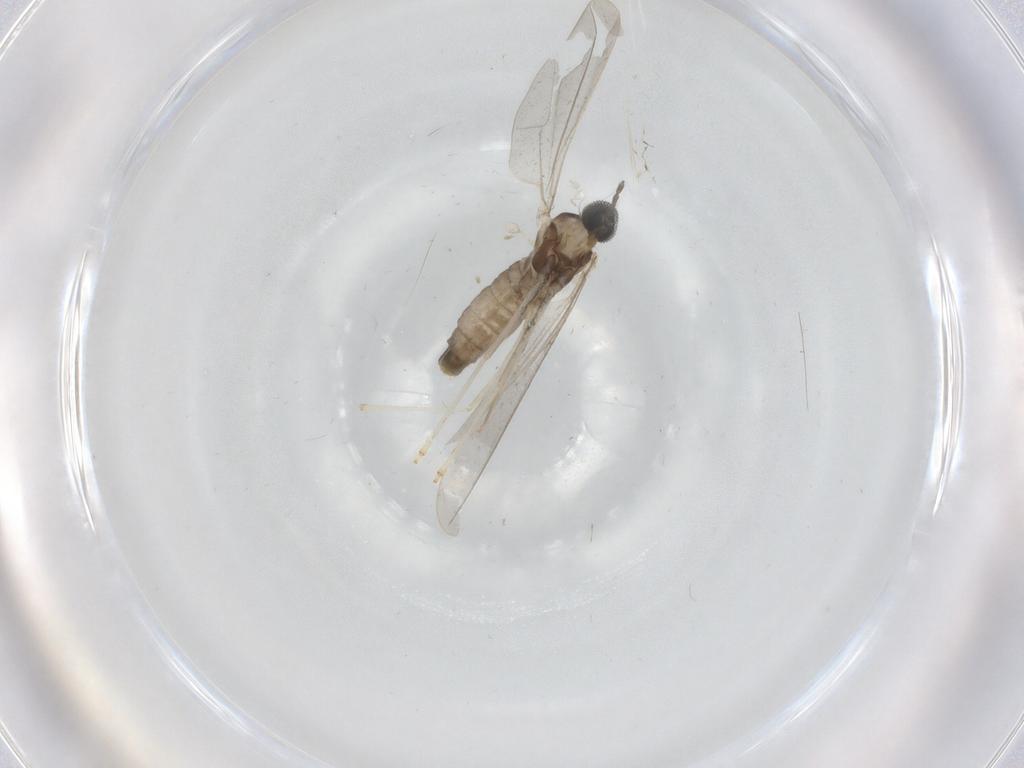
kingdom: Animalia
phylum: Arthropoda
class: Insecta
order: Diptera
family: Cecidomyiidae
